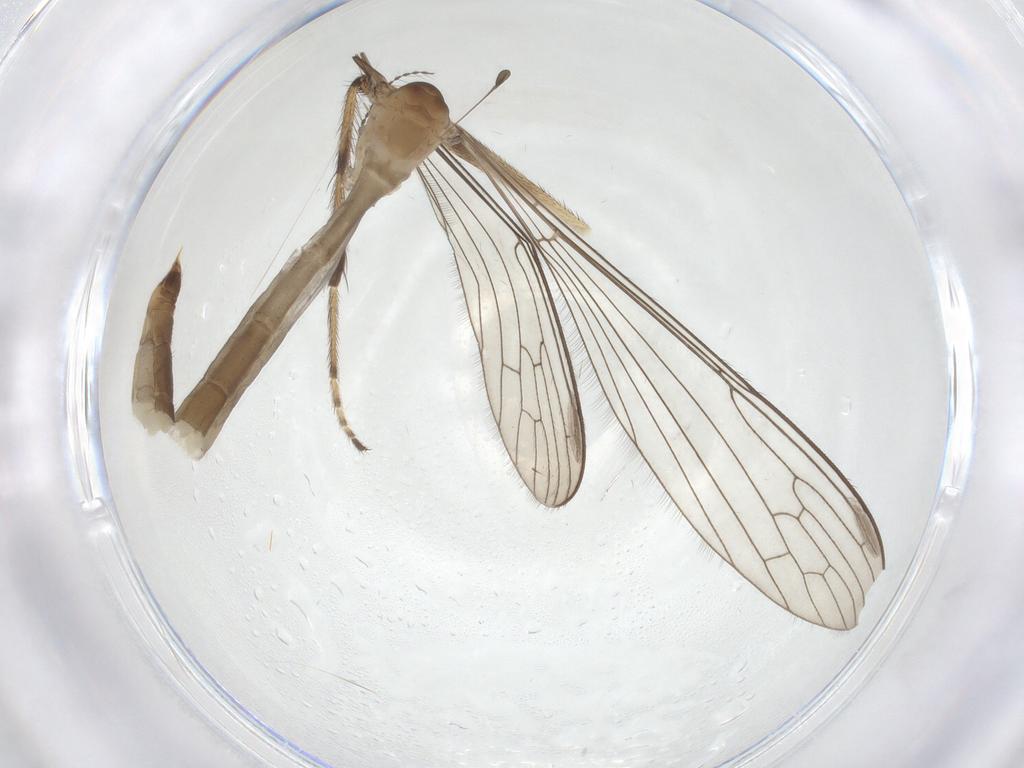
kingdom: Animalia
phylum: Arthropoda
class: Insecta
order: Diptera
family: Limoniidae
